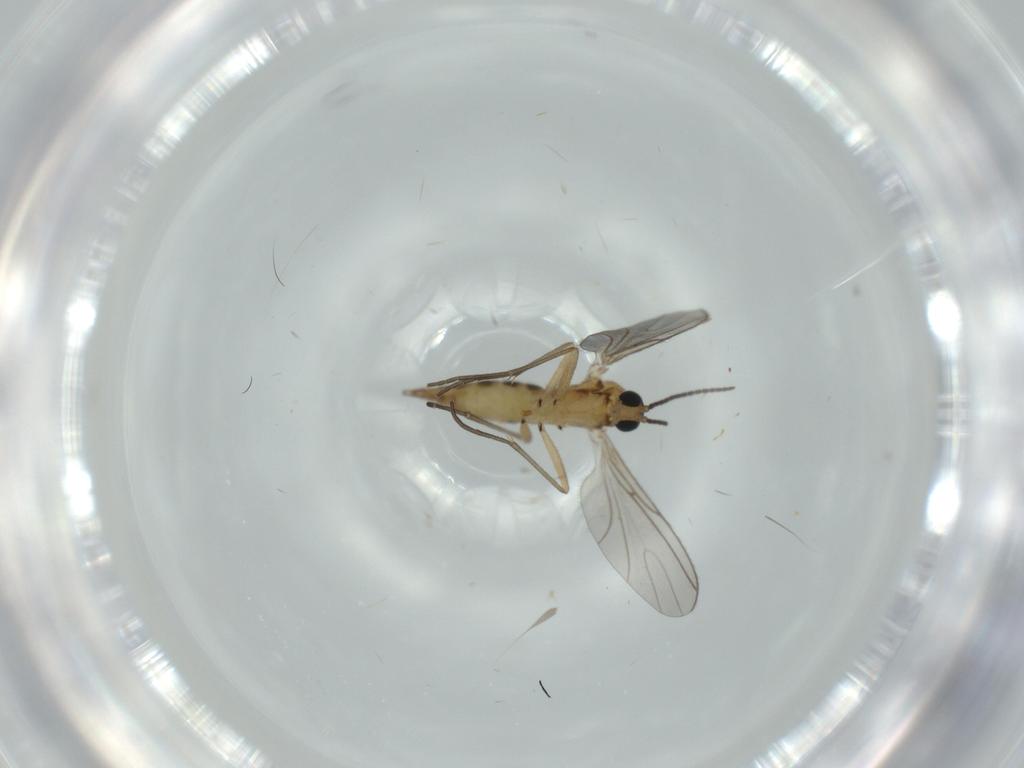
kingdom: Animalia
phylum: Arthropoda
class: Insecta
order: Diptera
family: Sciaridae
